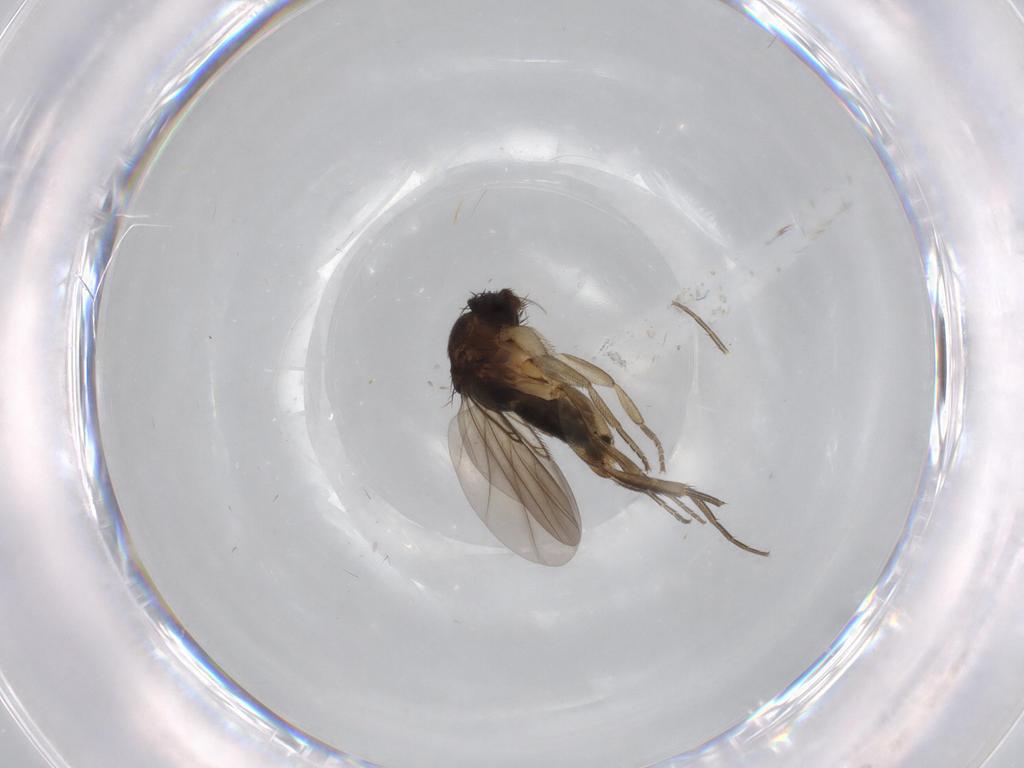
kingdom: Animalia
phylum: Arthropoda
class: Insecta
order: Diptera
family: Phoridae
